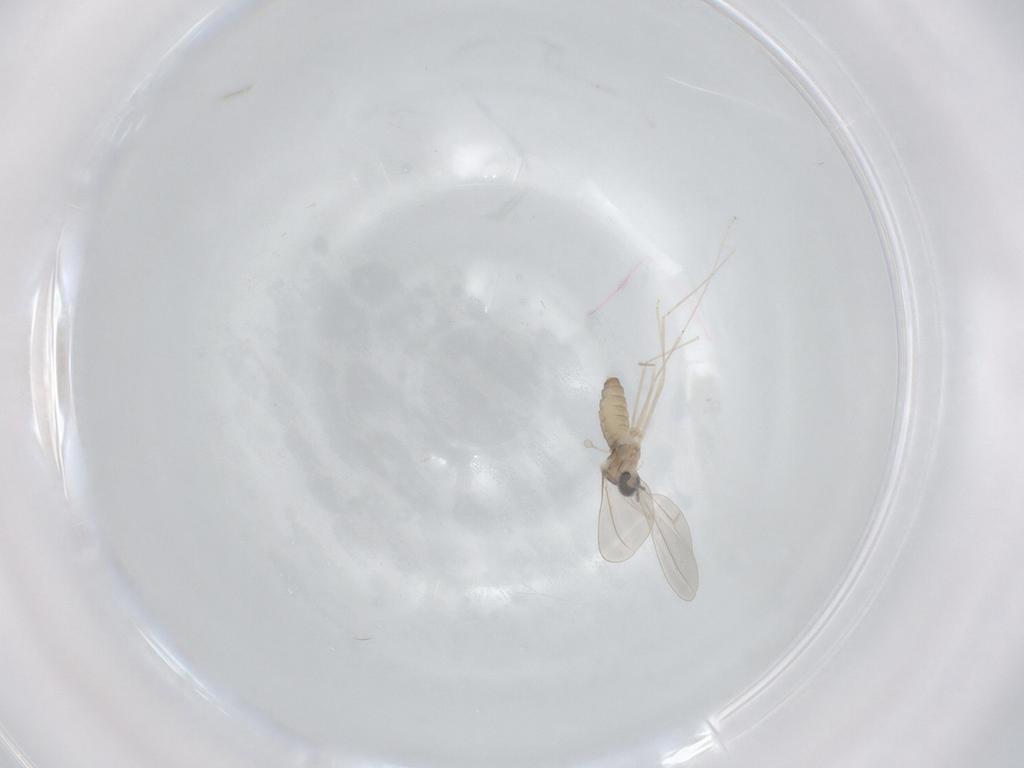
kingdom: Animalia
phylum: Arthropoda
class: Insecta
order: Diptera
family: Cecidomyiidae
